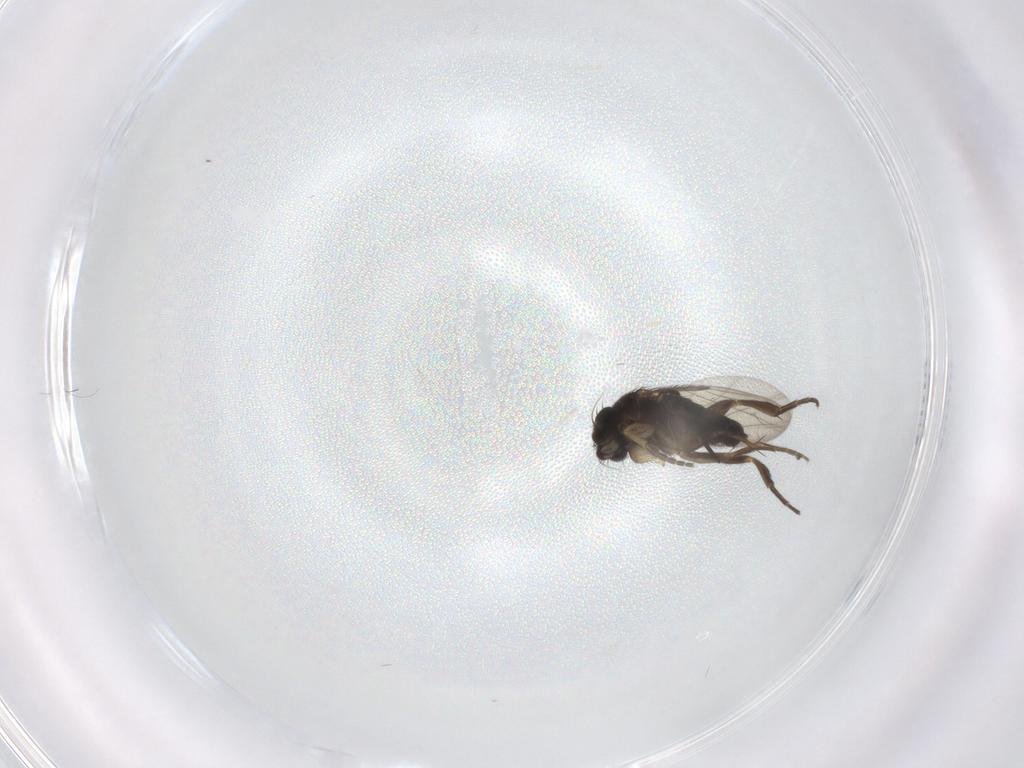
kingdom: Animalia
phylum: Arthropoda
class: Insecta
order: Diptera
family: Phoridae
